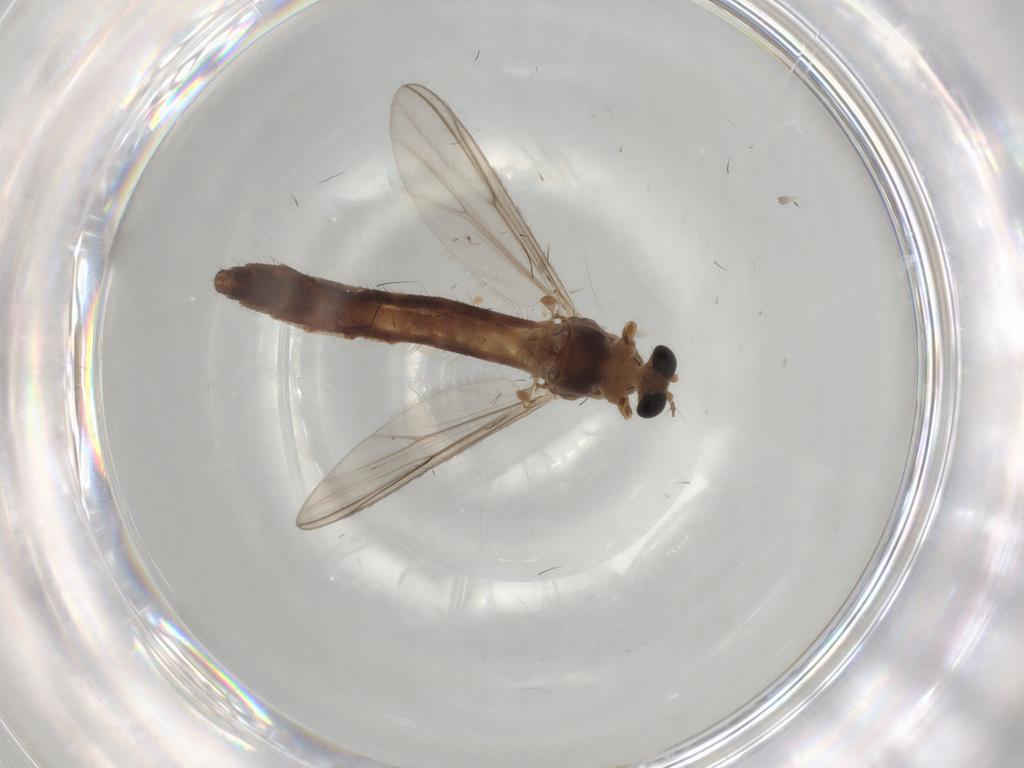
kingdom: Animalia
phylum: Arthropoda
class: Insecta
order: Diptera
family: Chironomidae
